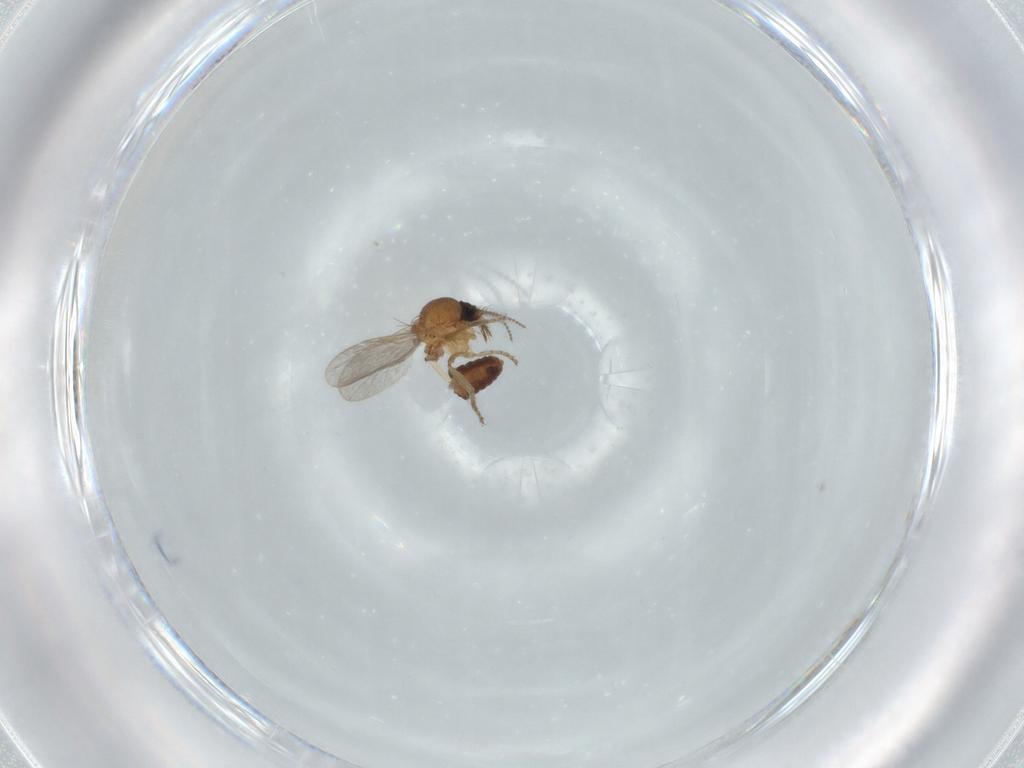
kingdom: Animalia
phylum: Arthropoda
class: Insecta
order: Diptera
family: Ceratopogonidae
